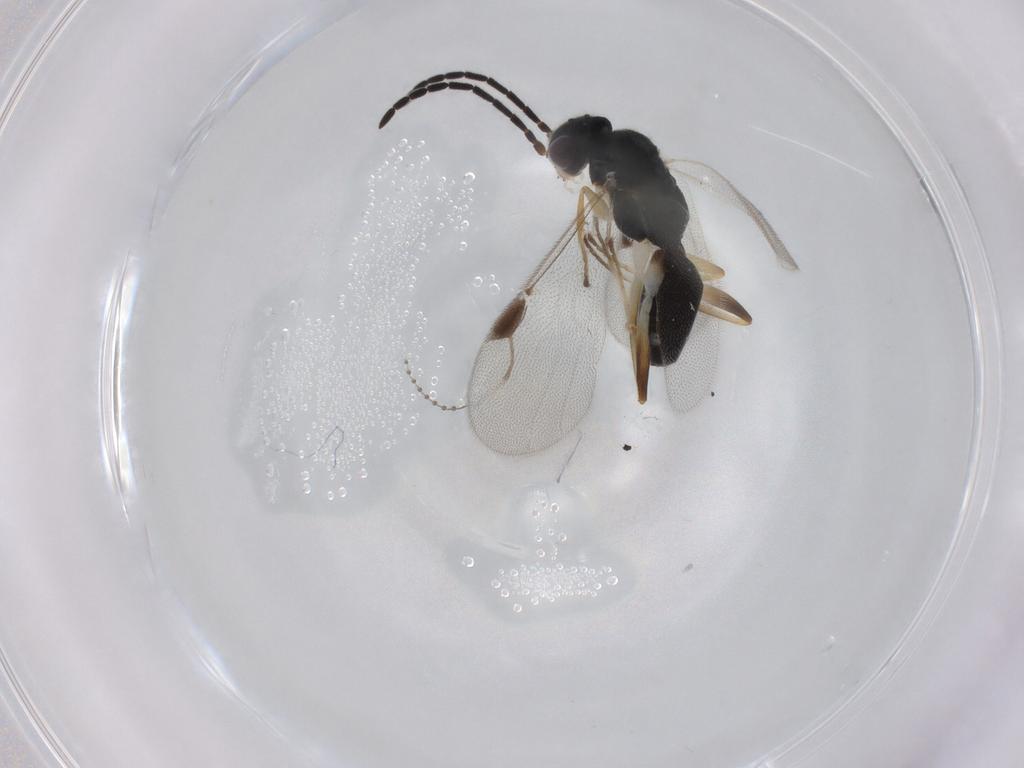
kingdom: Animalia
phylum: Arthropoda
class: Insecta
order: Hymenoptera
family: Dryinidae
